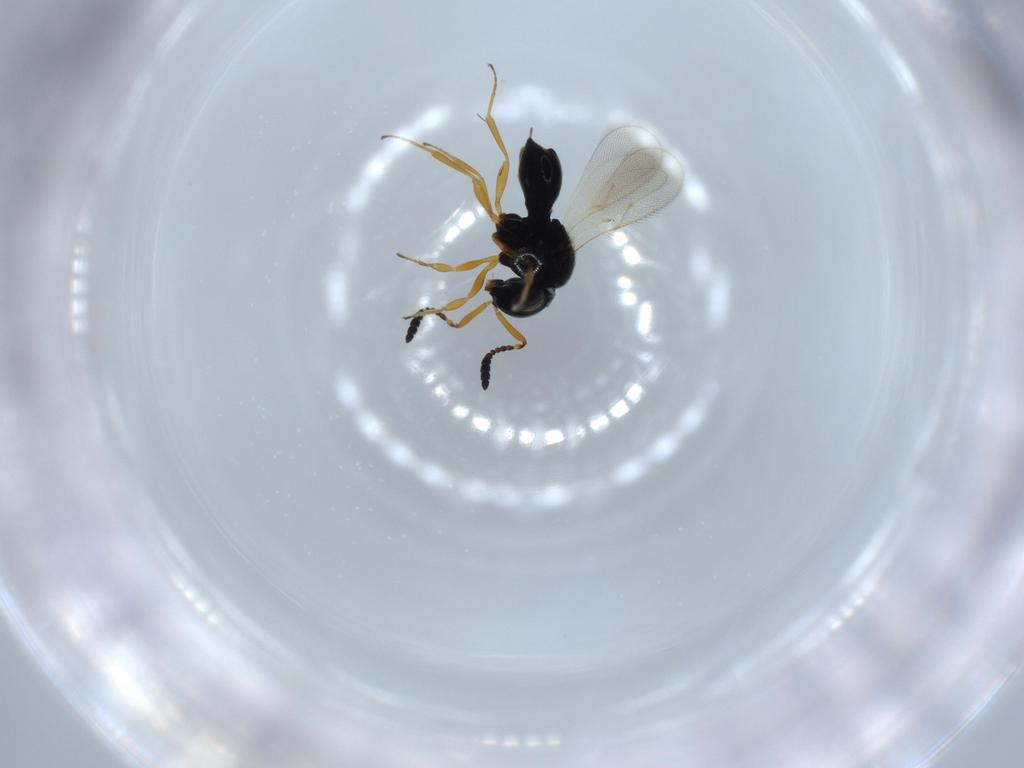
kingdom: Animalia
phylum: Arthropoda
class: Insecta
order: Hymenoptera
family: Scelionidae
